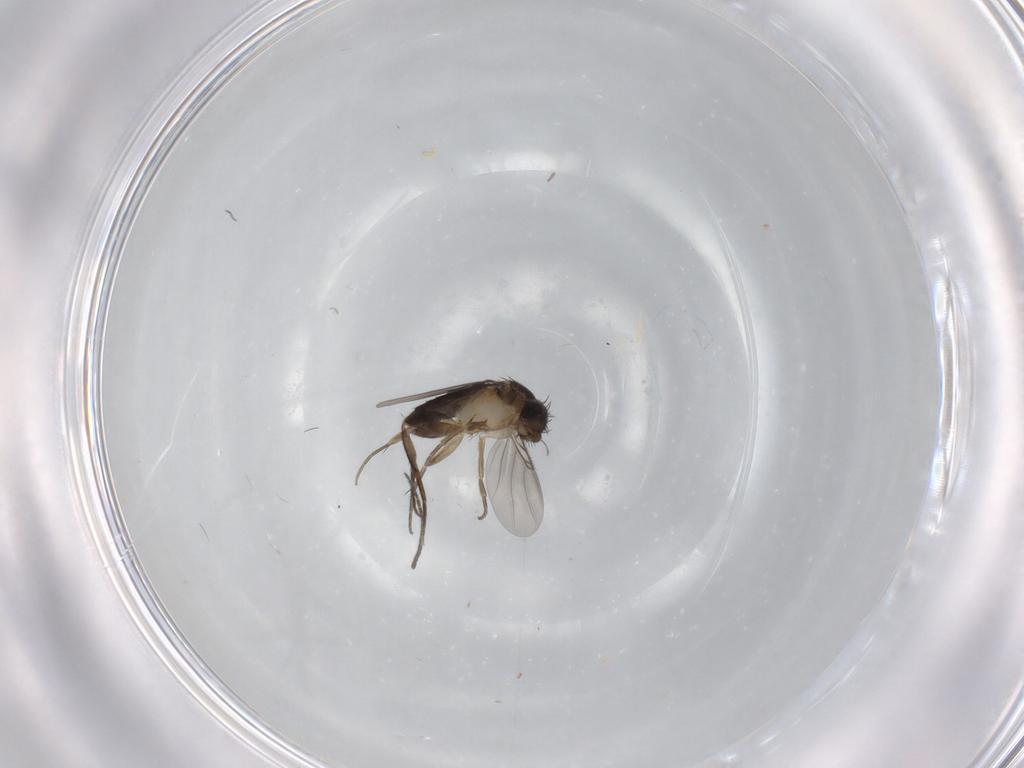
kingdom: Animalia
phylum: Arthropoda
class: Insecta
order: Diptera
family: Phoridae
